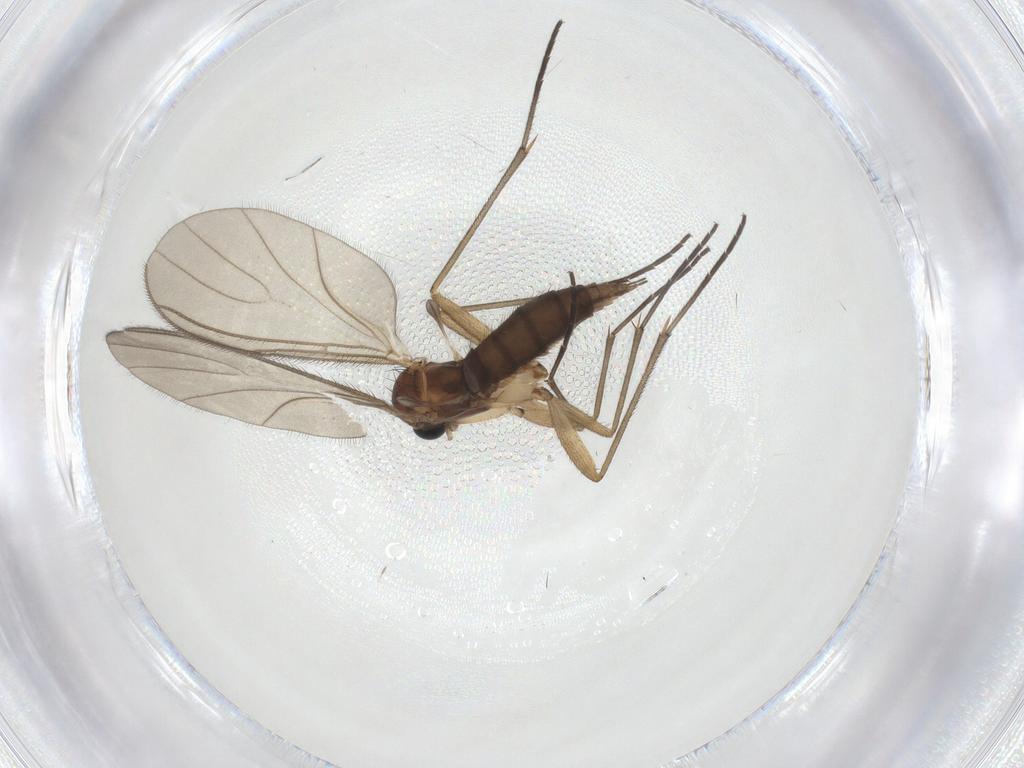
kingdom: Animalia
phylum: Arthropoda
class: Insecta
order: Diptera
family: Sciaridae
